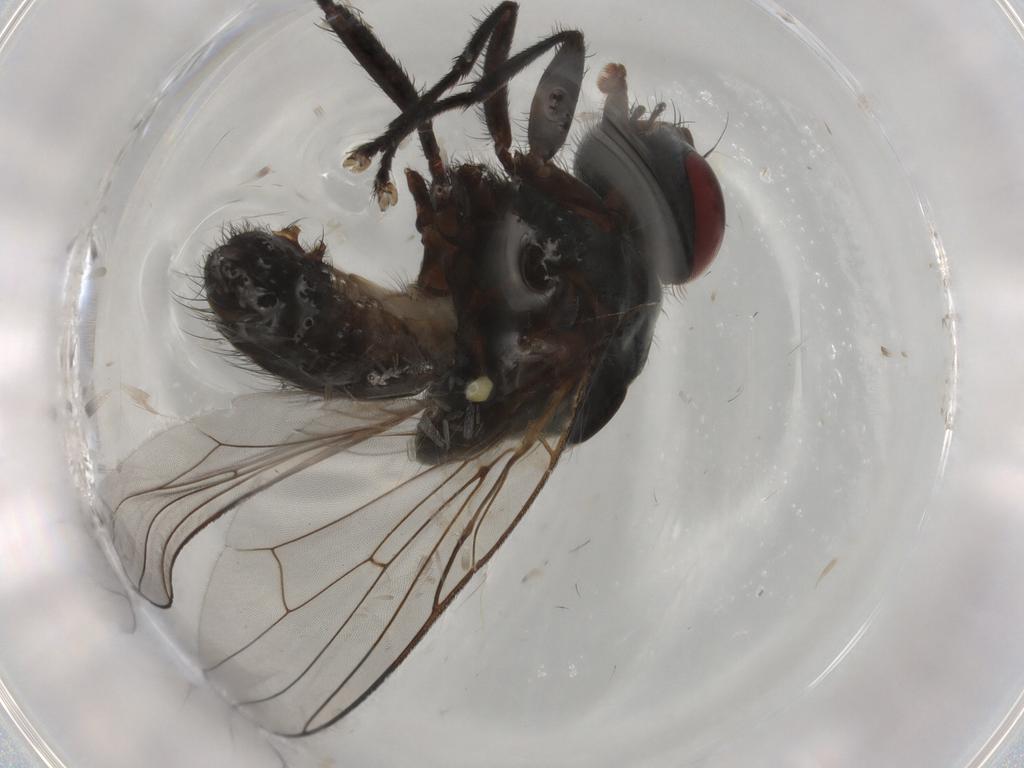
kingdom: Animalia
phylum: Arthropoda
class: Insecta
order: Diptera
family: Anthomyiidae
